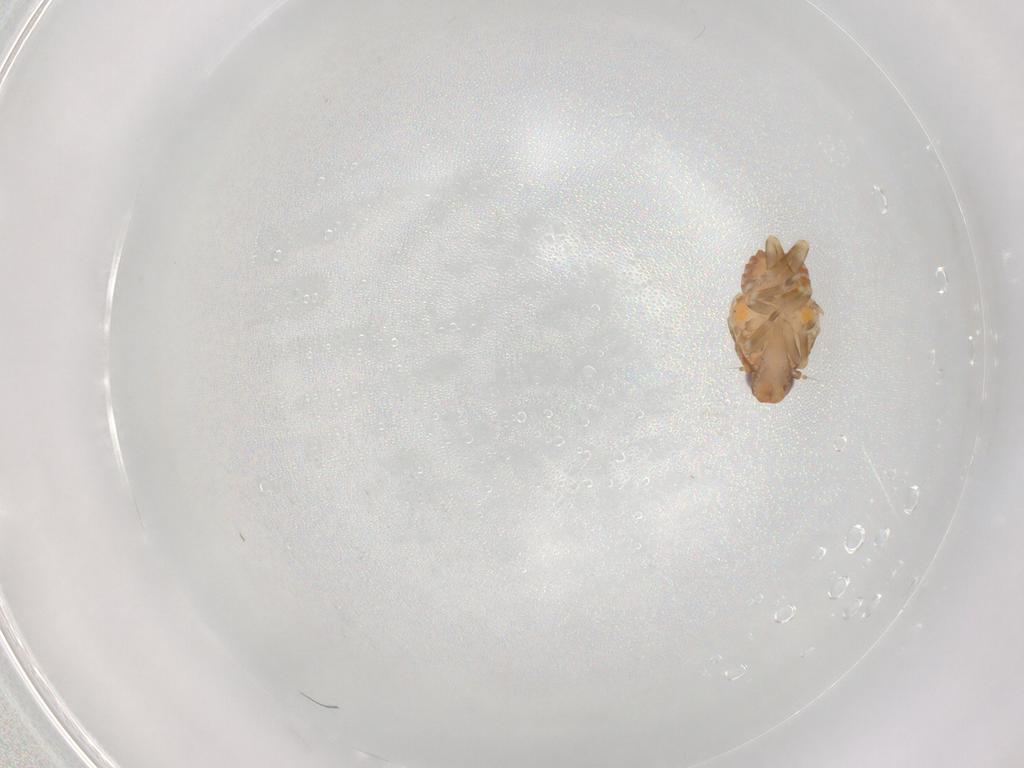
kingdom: Animalia
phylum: Arthropoda
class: Insecta
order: Hemiptera
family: Flatidae
